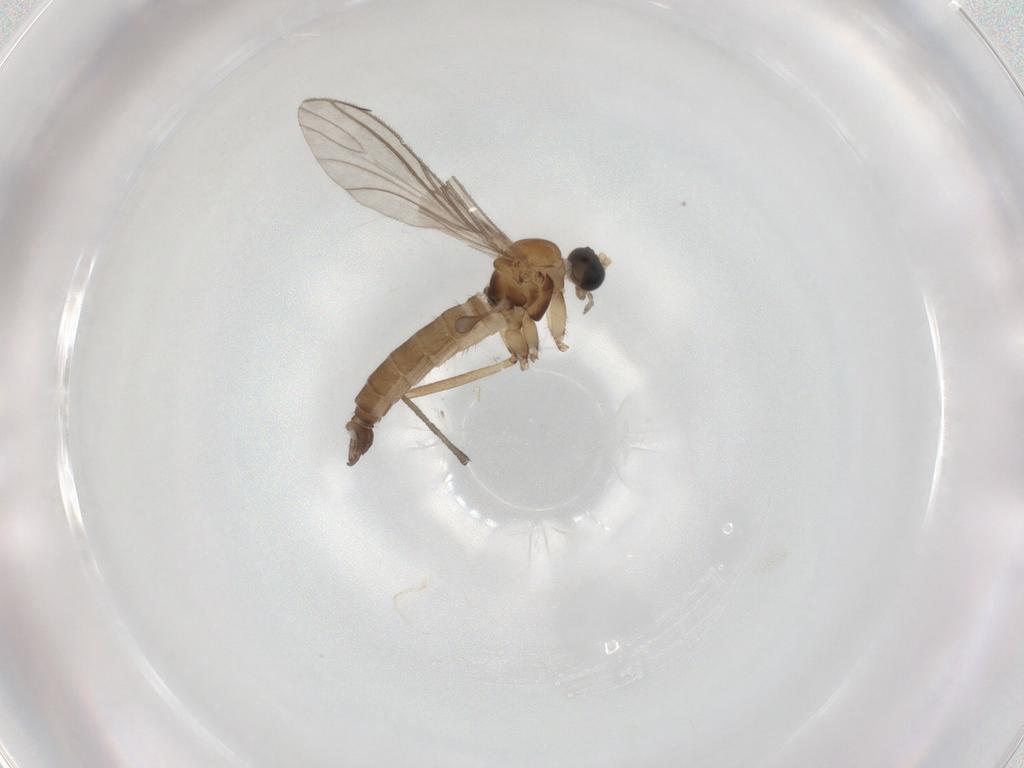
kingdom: Animalia
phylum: Arthropoda
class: Insecta
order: Diptera
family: Sciaridae
